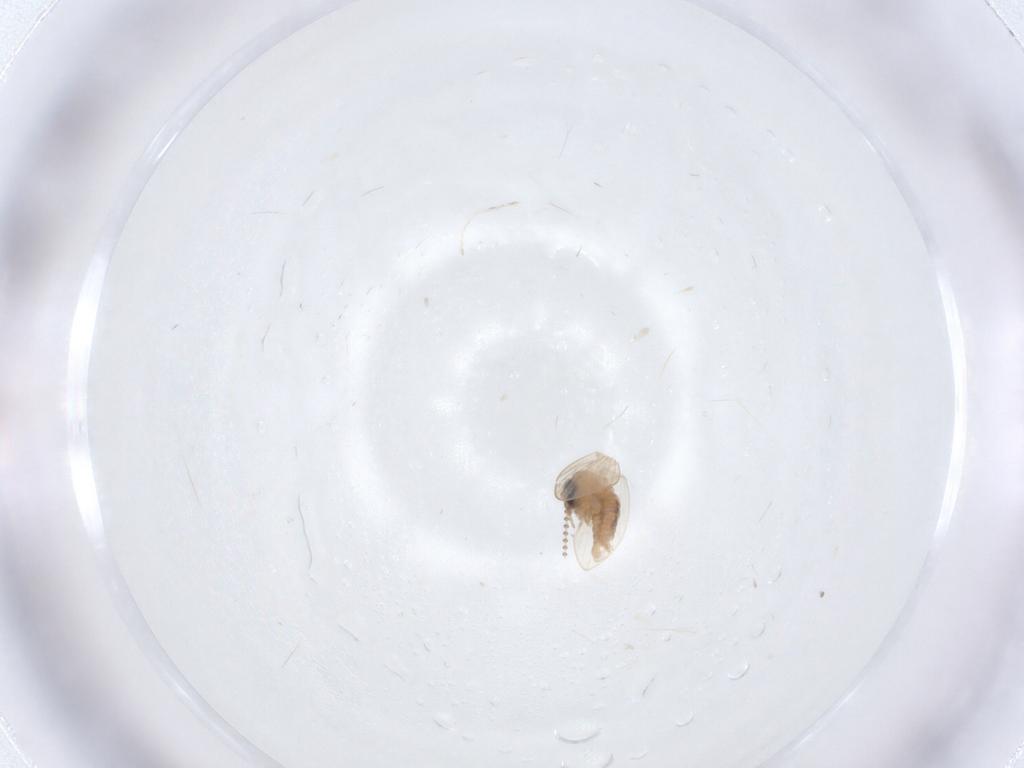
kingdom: Animalia
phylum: Arthropoda
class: Insecta
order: Diptera
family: Psychodidae
